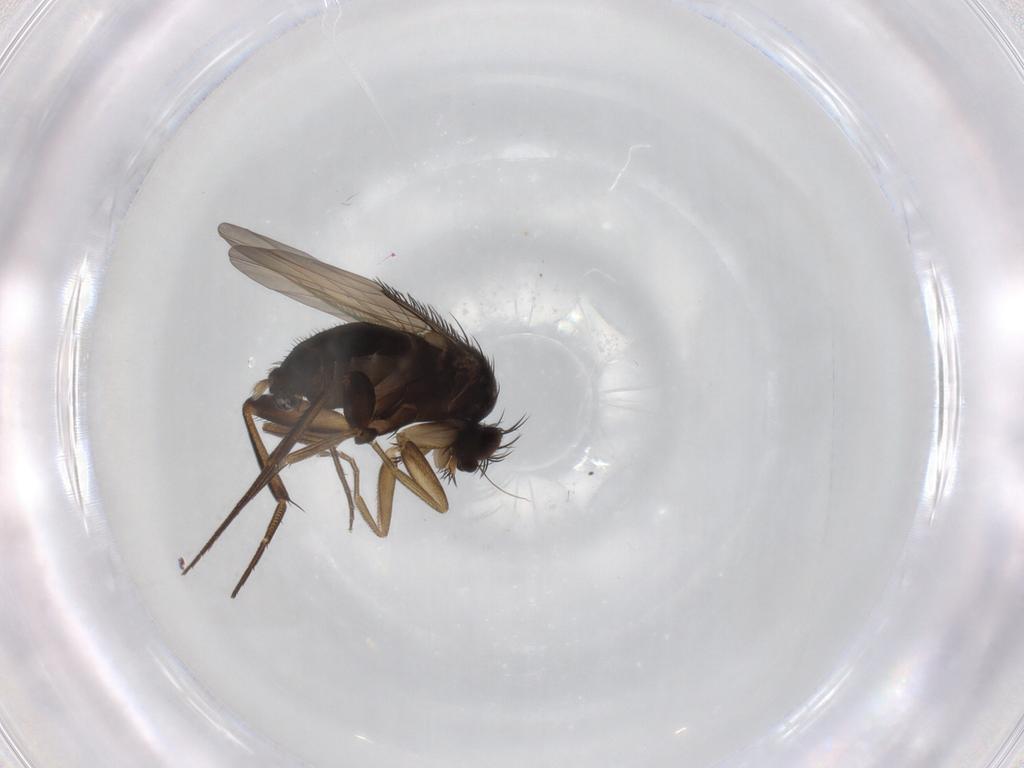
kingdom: Animalia
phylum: Arthropoda
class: Insecta
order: Diptera
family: Phoridae
